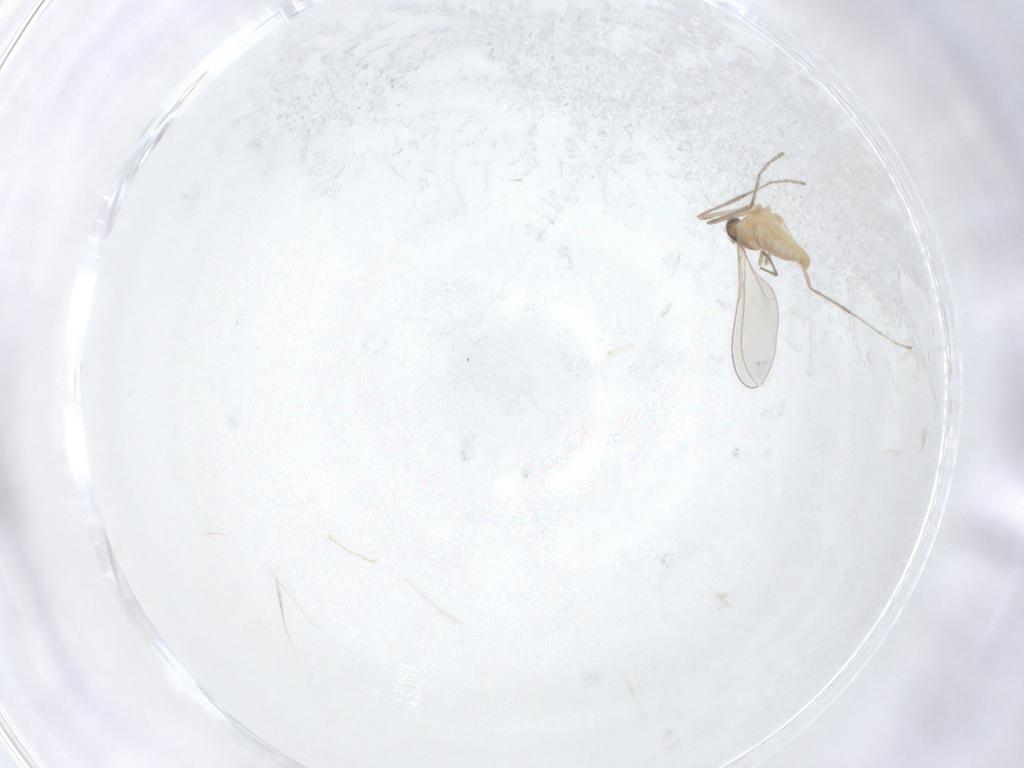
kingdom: Animalia
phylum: Arthropoda
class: Insecta
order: Diptera
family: Cecidomyiidae
